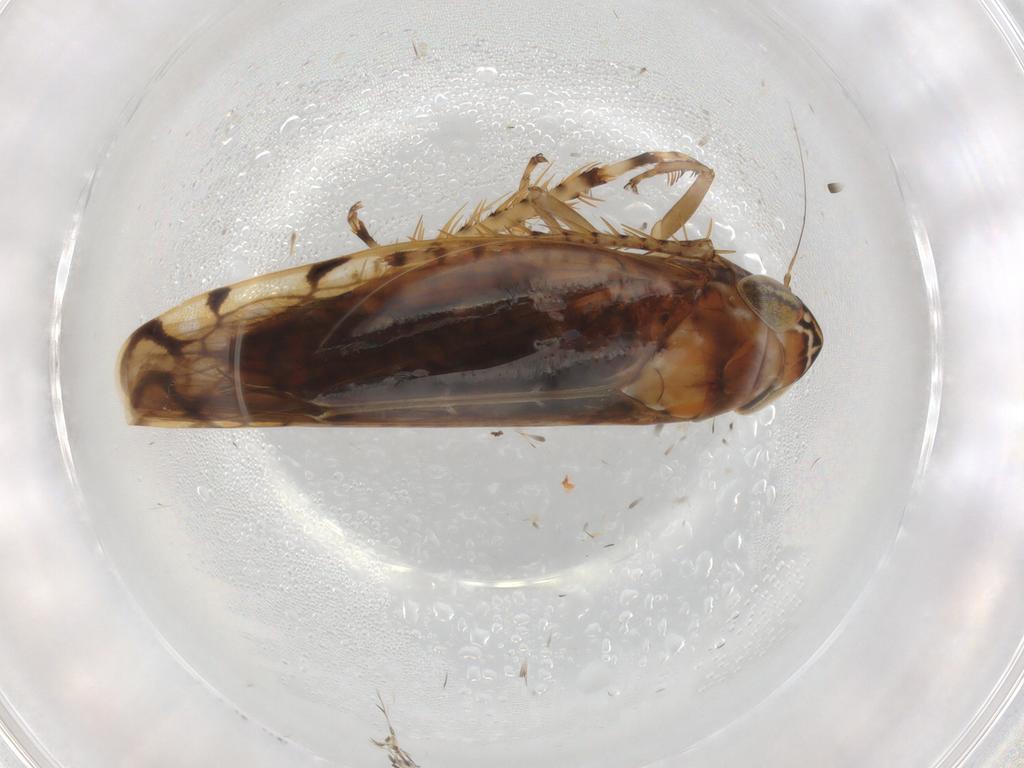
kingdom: Animalia
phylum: Arthropoda
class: Insecta
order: Hemiptera
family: Cicadellidae
